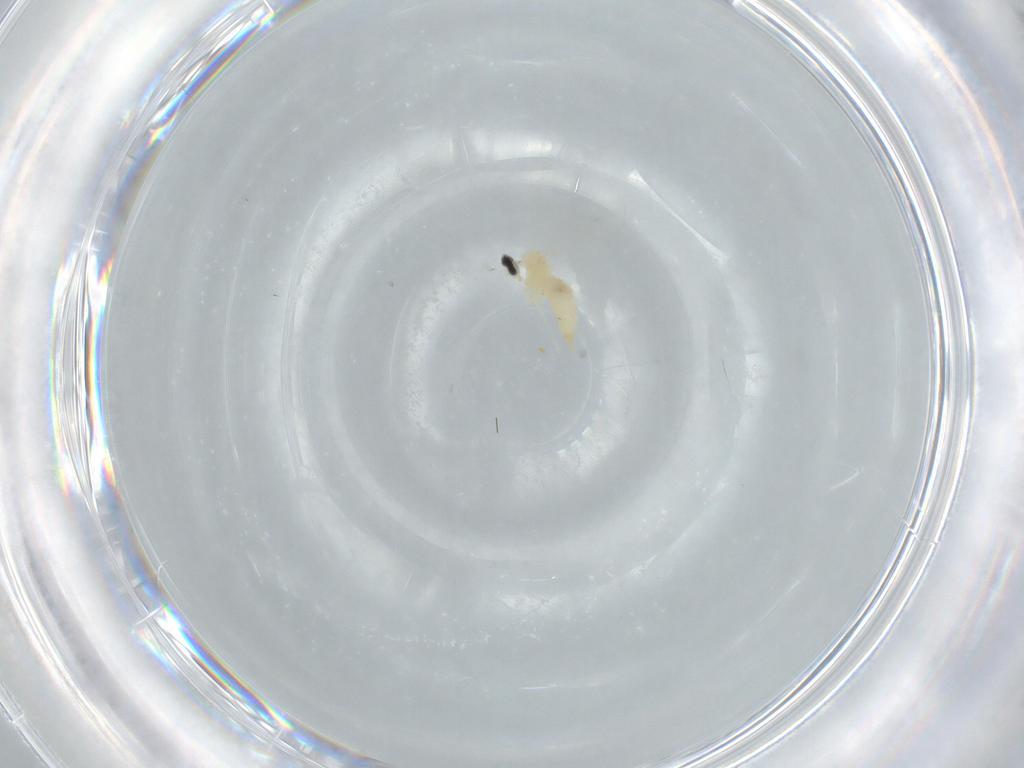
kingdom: Animalia
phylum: Arthropoda
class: Insecta
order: Diptera
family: Cecidomyiidae
